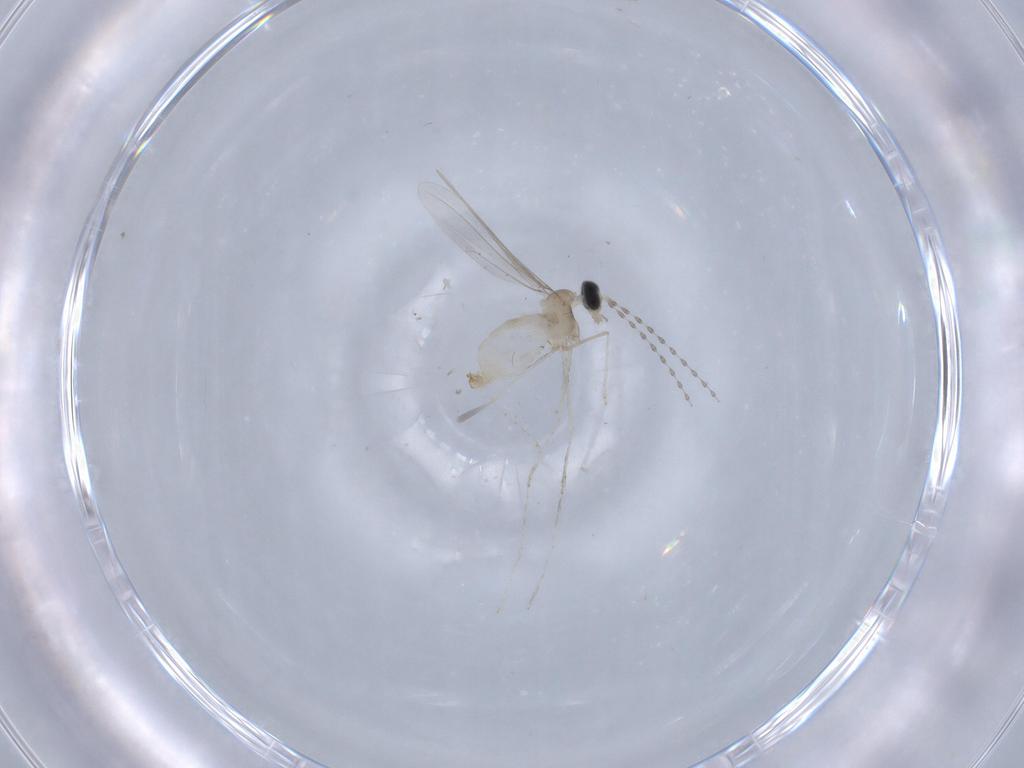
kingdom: Animalia
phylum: Arthropoda
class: Insecta
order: Diptera
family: Cecidomyiidae
